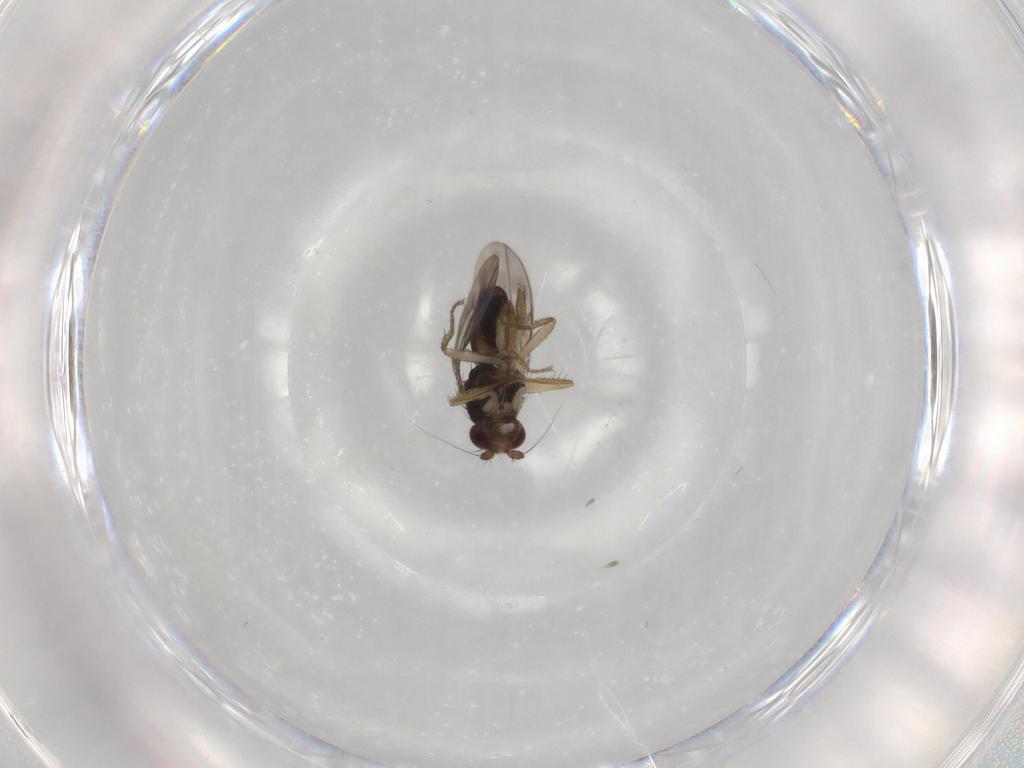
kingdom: Animalia
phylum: Arthropoda
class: Insecta
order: Diptera
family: Sphaeroceridae
